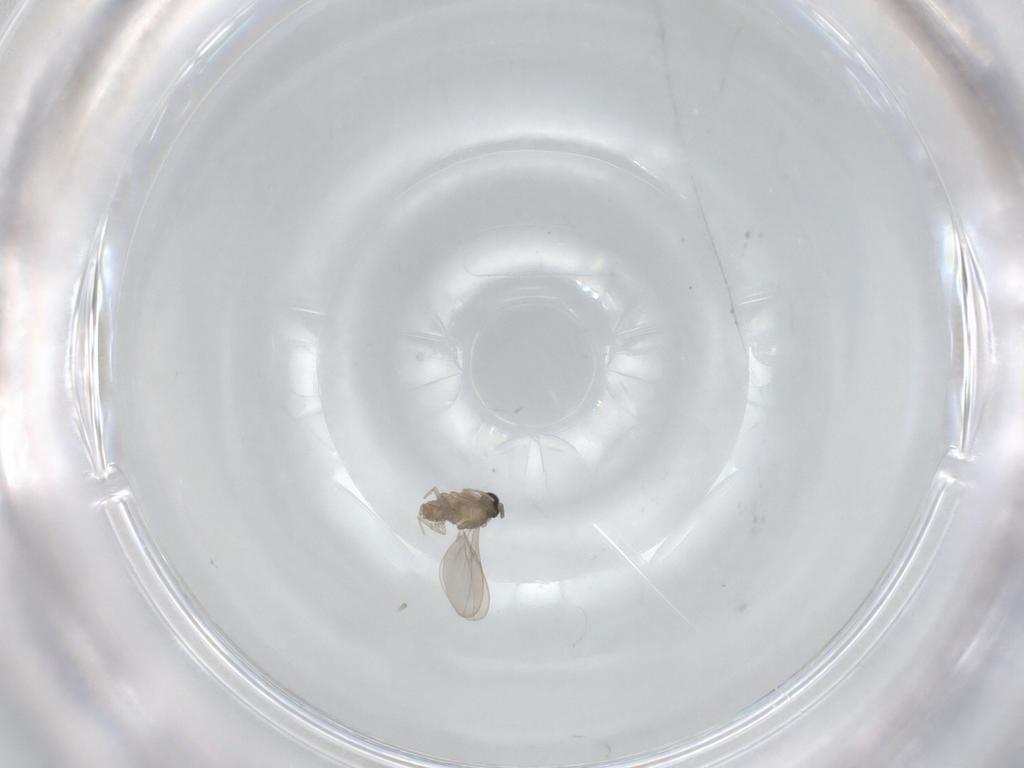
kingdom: Animalia
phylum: Arthropoda
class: Insecta
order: Diptera
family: Cecidomyiidae
